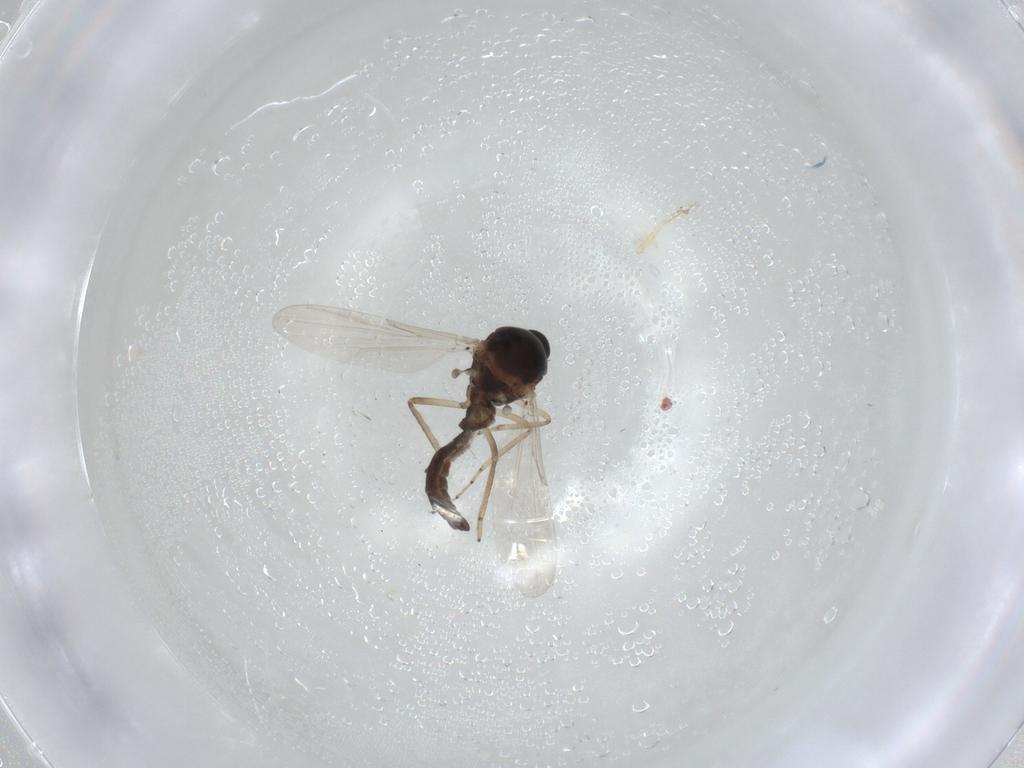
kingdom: Animalia
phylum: Arthropoda
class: Insecta
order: Diptera
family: Ceratopogonidae
